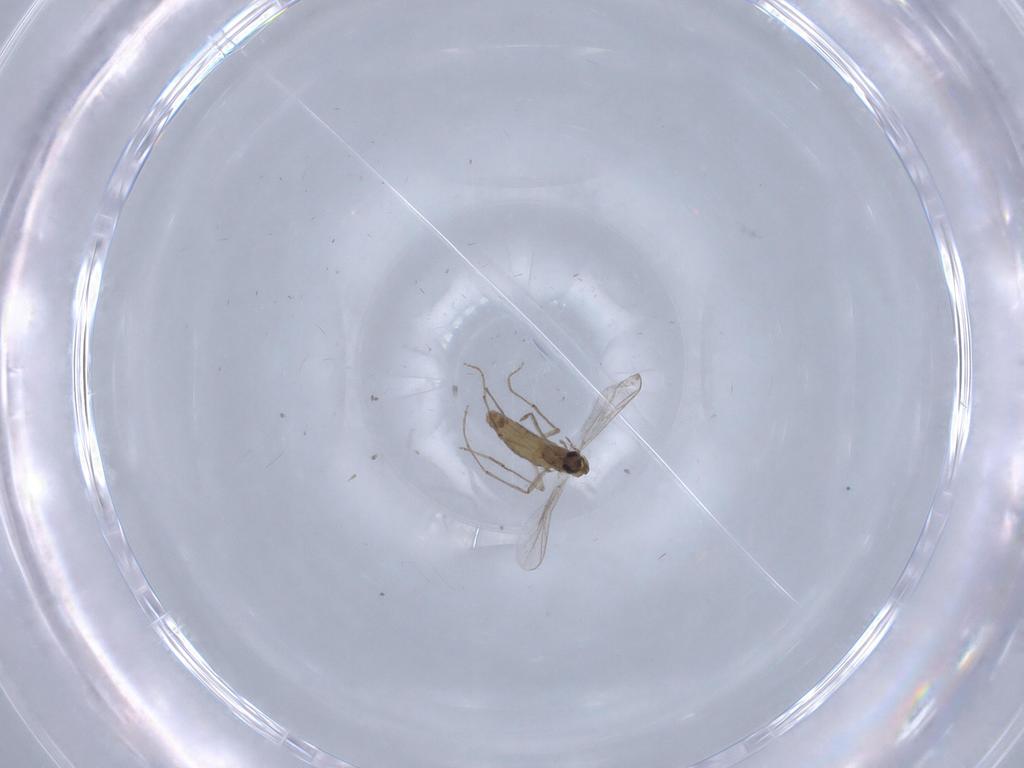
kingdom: Animalia
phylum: Arthropoda
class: Insecta
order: Diptera
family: Chironomidae
